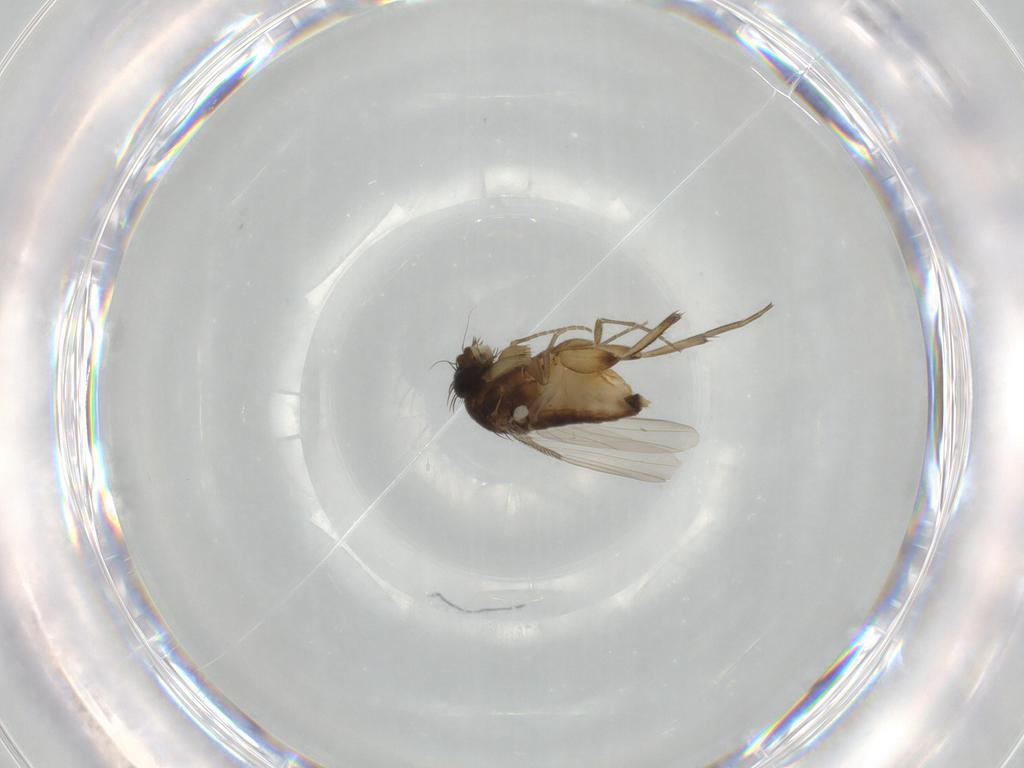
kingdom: Animalia
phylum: Arthropoda
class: Insecta
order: Diptera
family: Phoridae
